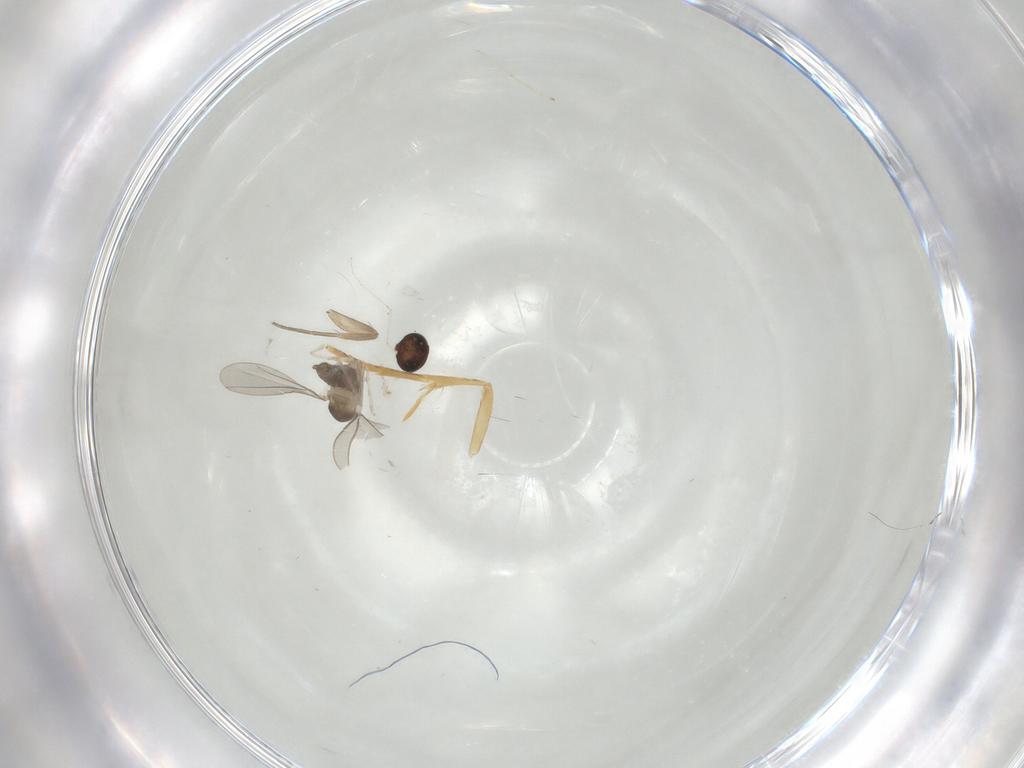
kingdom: Animalia
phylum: Arthropoda
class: Insecta
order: Diptera
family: Phoridae
